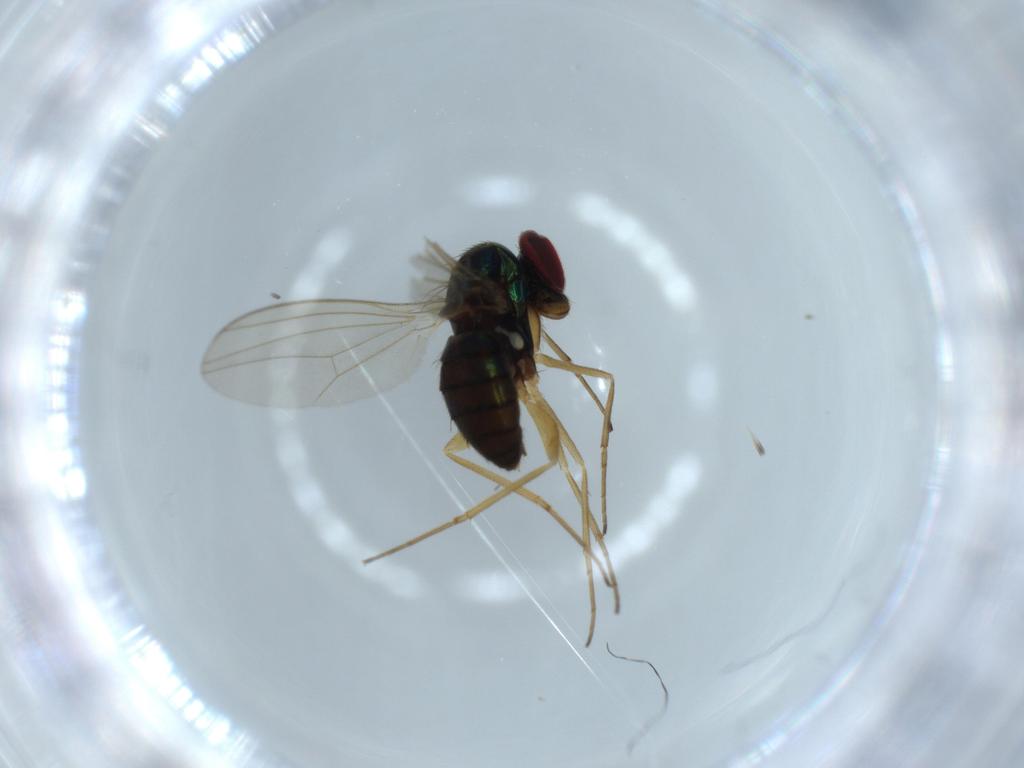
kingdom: Animalia
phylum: Arthropoda
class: Insecta
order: Diptera
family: Dolichopodidae
